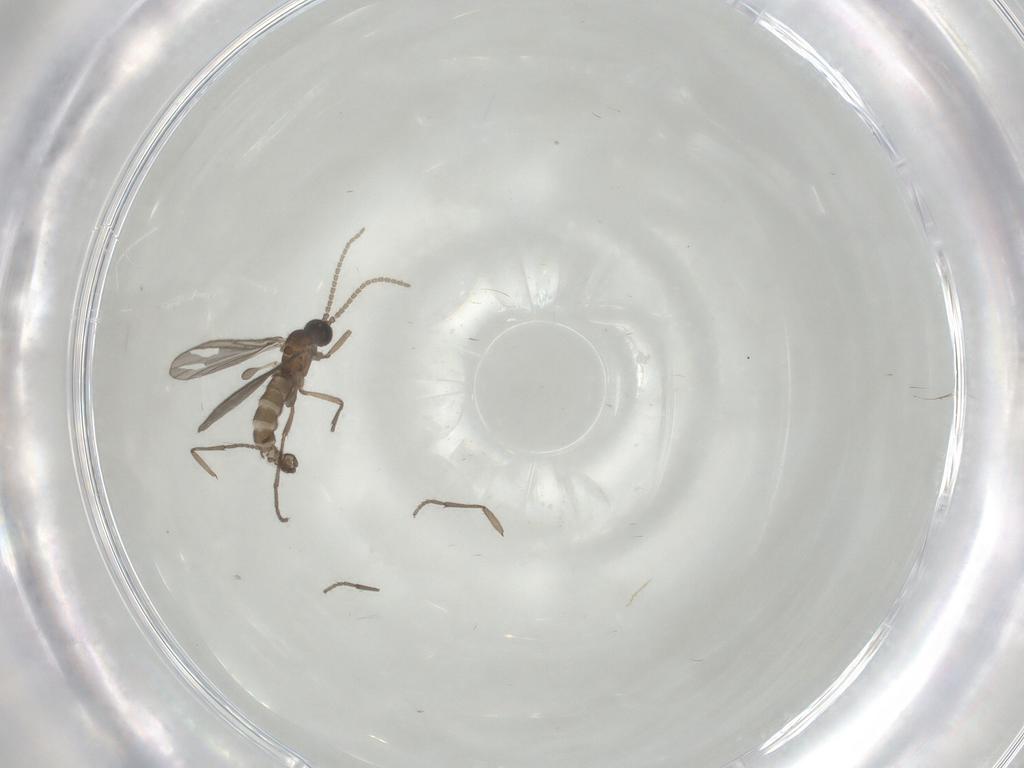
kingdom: Animalia
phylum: Arthropoda
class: Insecta
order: Diptera
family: Sciaridae
